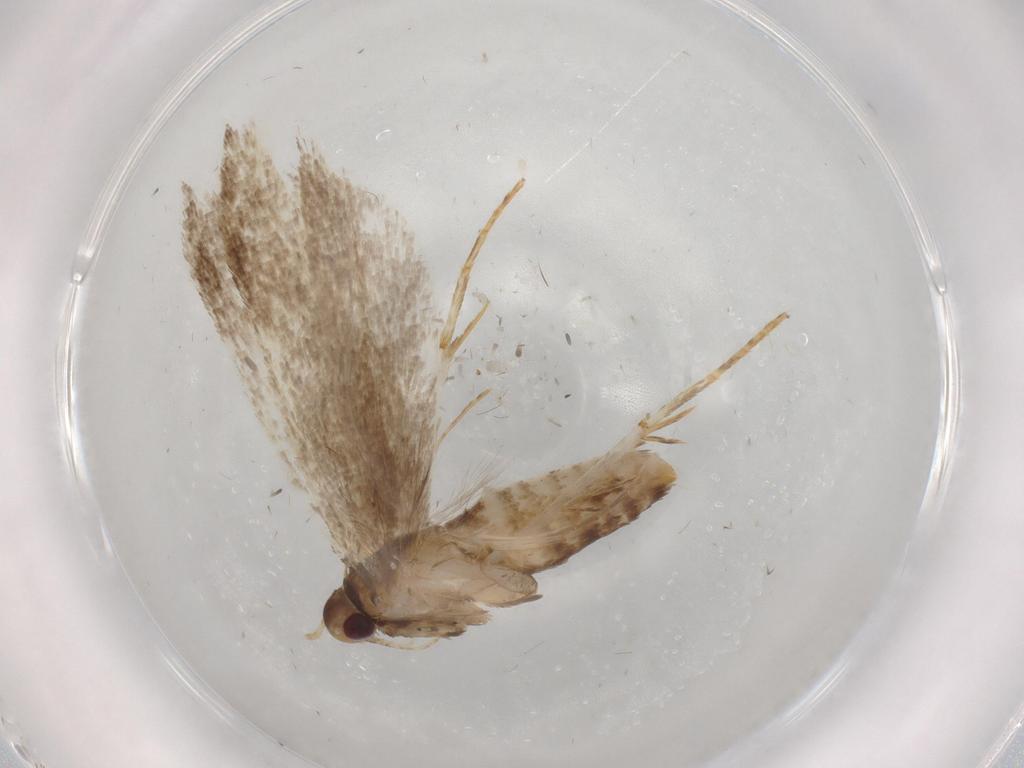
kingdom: Animalia
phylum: Arthropoda
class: Insecta
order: Lepidoptera
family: Gelechiidae
